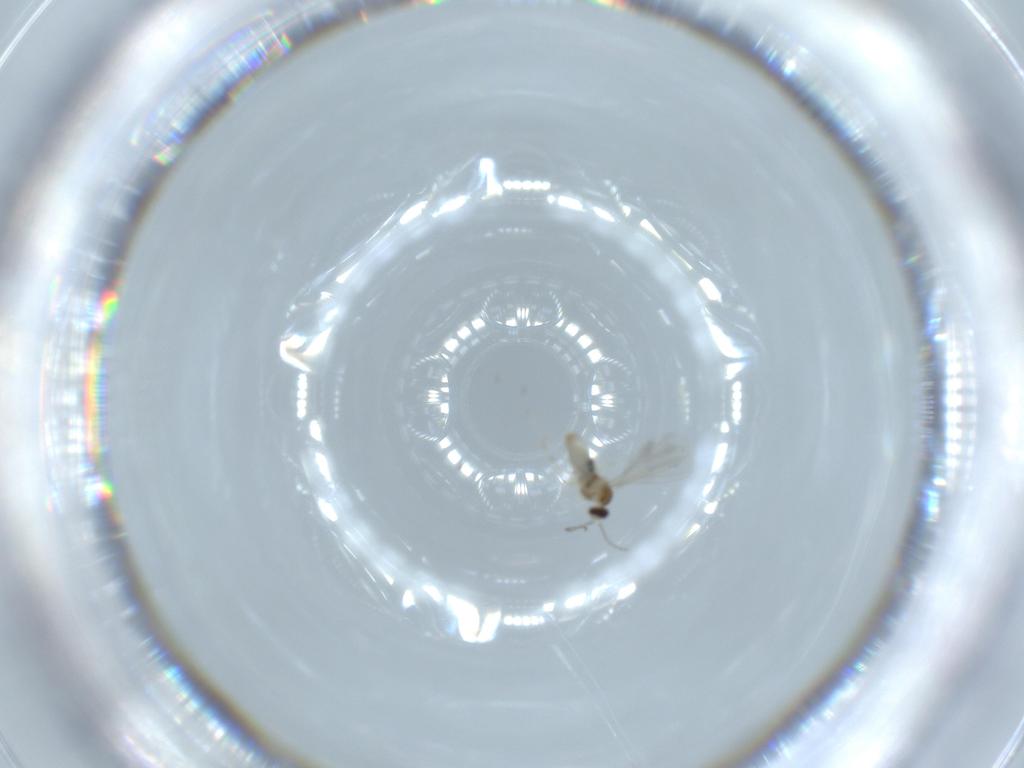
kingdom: Animalia
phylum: Arthropoda
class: Insecta
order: Diptera
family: Cecidomyiidae
